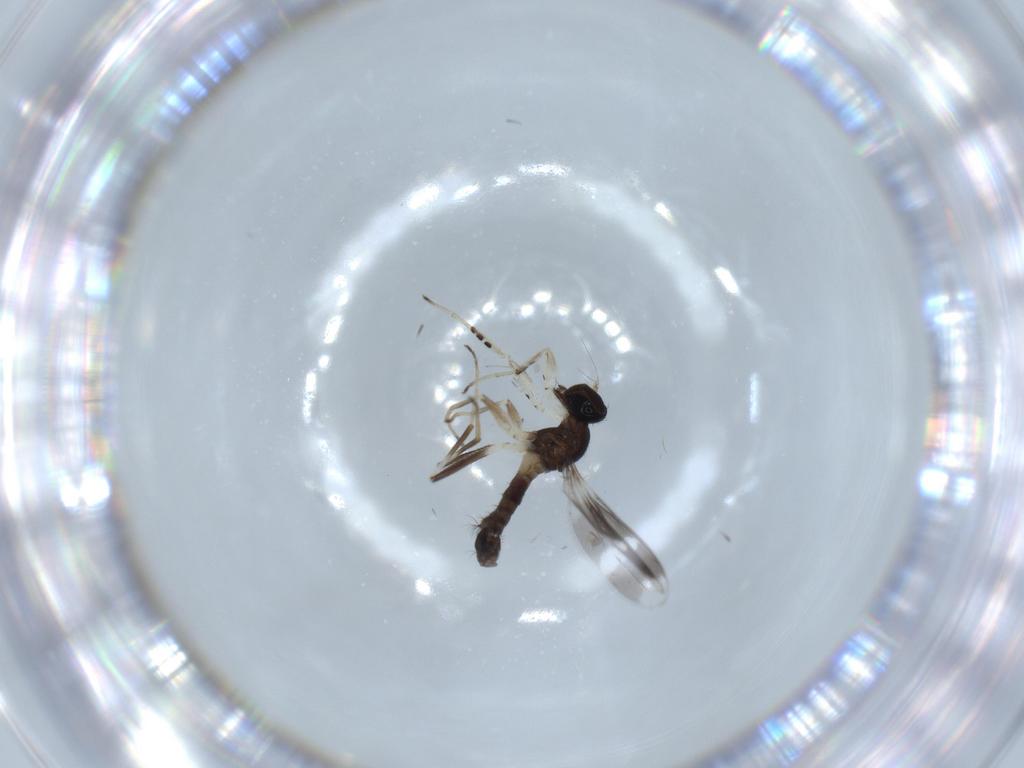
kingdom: Animalia
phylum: Arthropoda
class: Insecta
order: Diptera
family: Hybotidae
